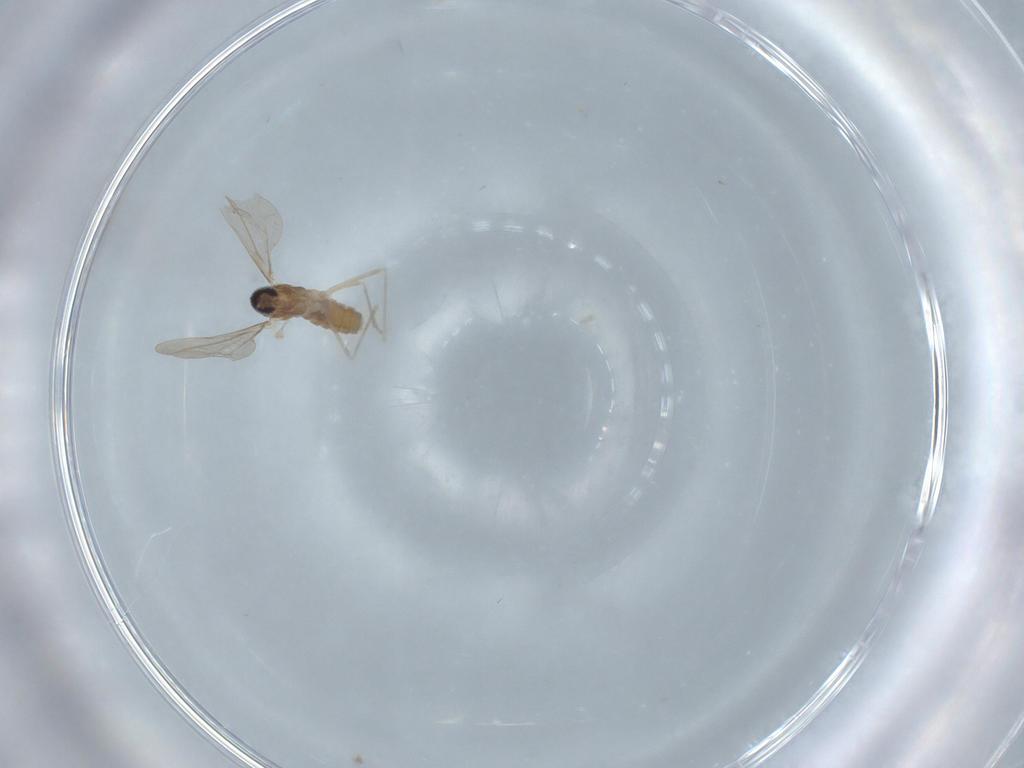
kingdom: Animalia
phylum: Arthropoda
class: Insecta
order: Diptera
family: Cecidomyiidae
